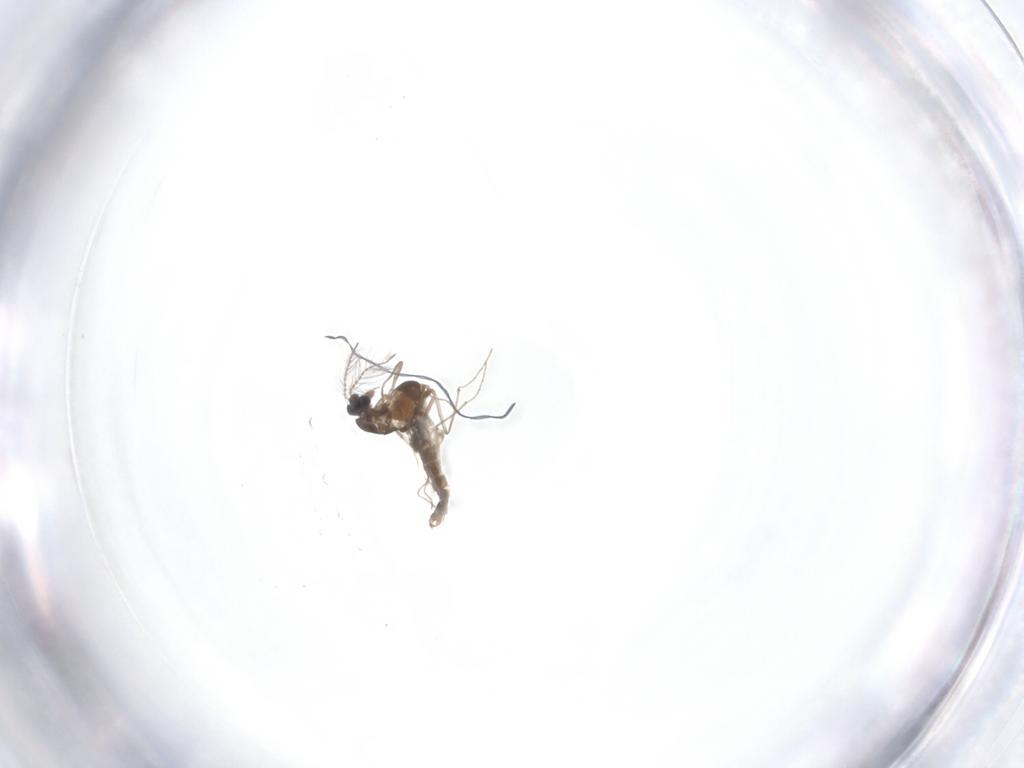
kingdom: Animalia
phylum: Arthropoda
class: Insecta
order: Diptera
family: Chironomidae
